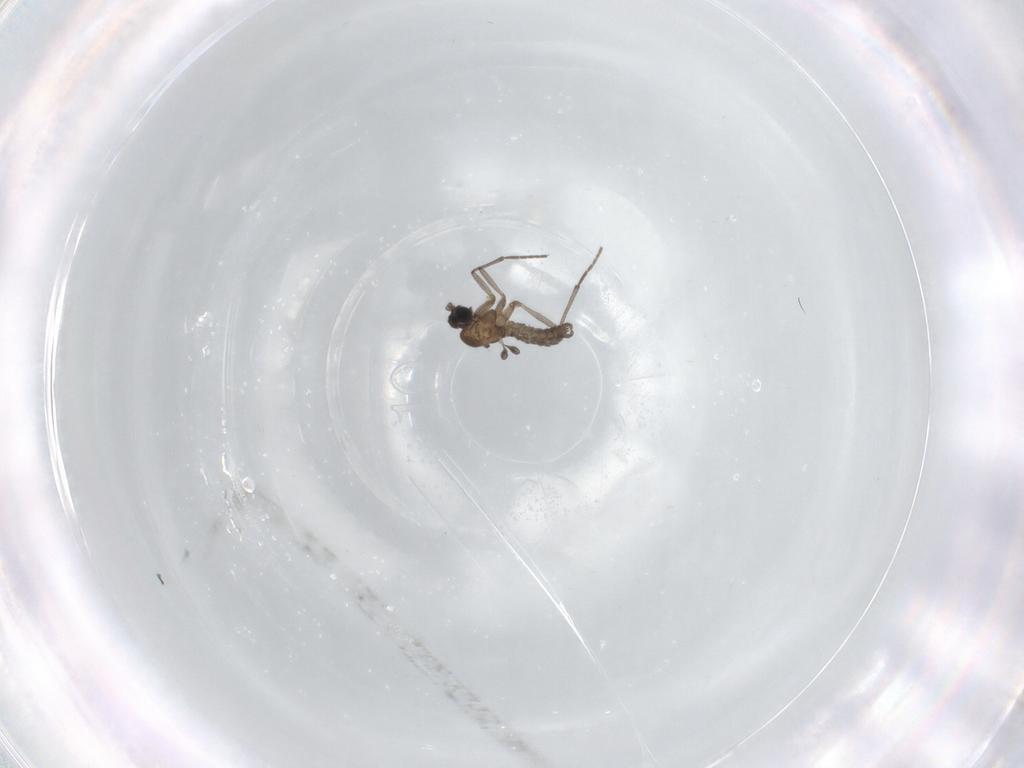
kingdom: Animalia
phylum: Arthropoda
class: Insecta
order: Diptera
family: Sciaridae
